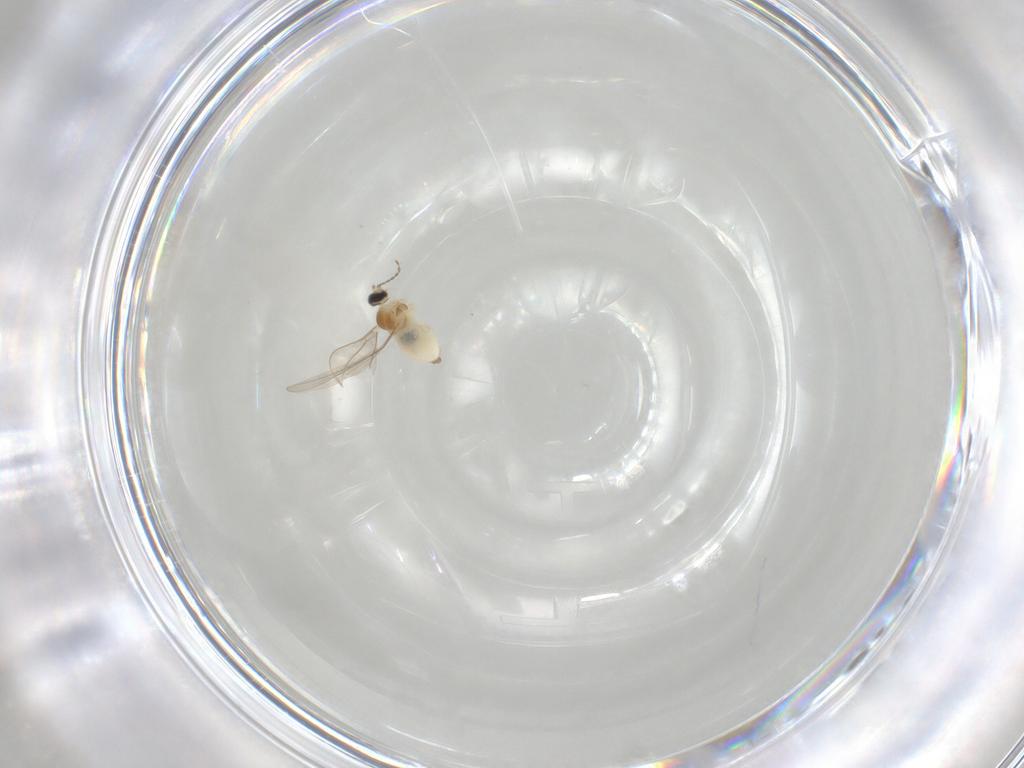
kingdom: Animalia
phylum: Arthropoda
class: Insecta
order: Diptera
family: Cecidomyiidae
